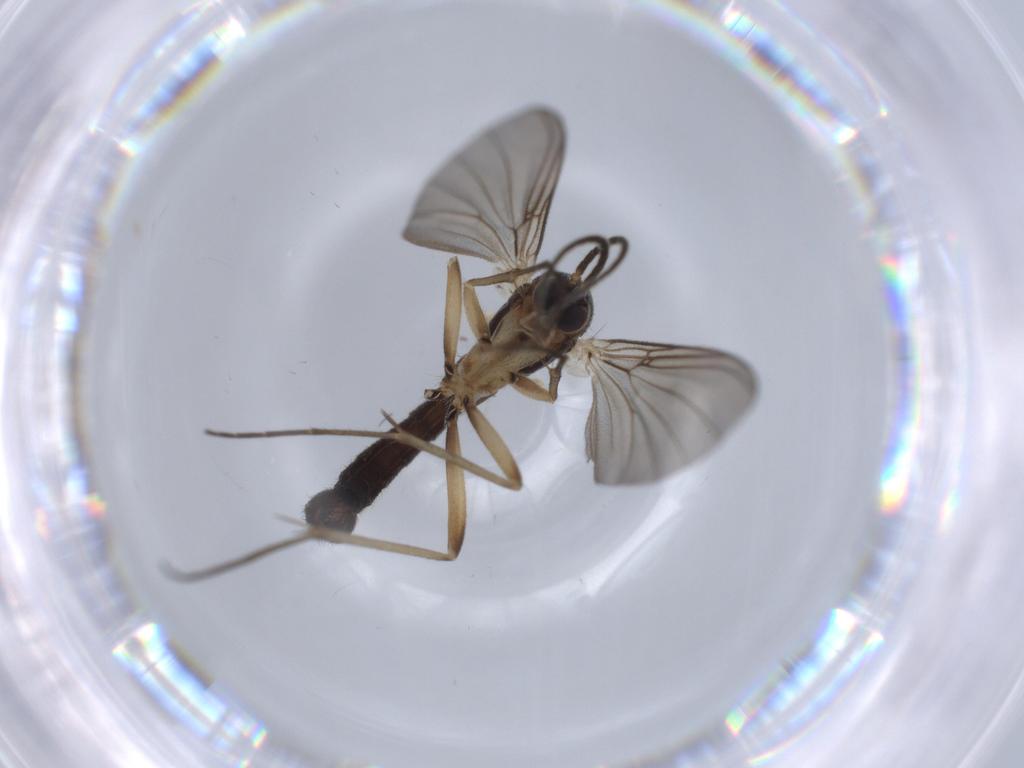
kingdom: Animalia
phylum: Arthropoda
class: Insecta
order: Diptera
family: Mycetophilidae
